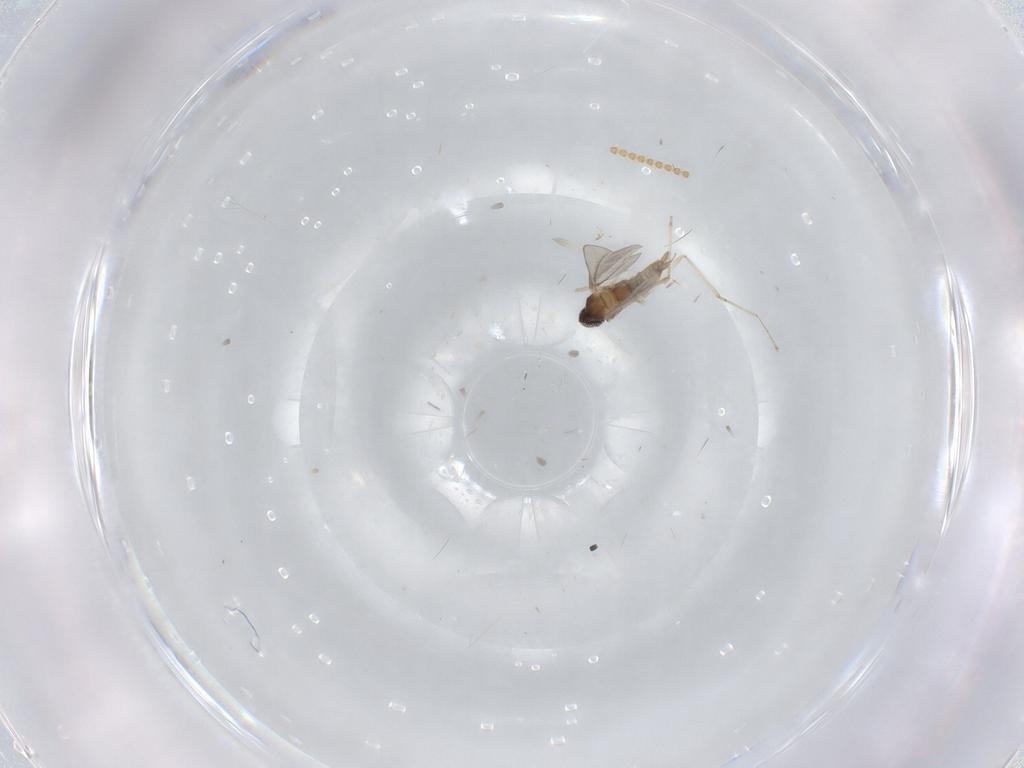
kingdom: Animalia
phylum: Arthropoda
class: Insecta
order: Diptera
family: Cecidomyiidae
